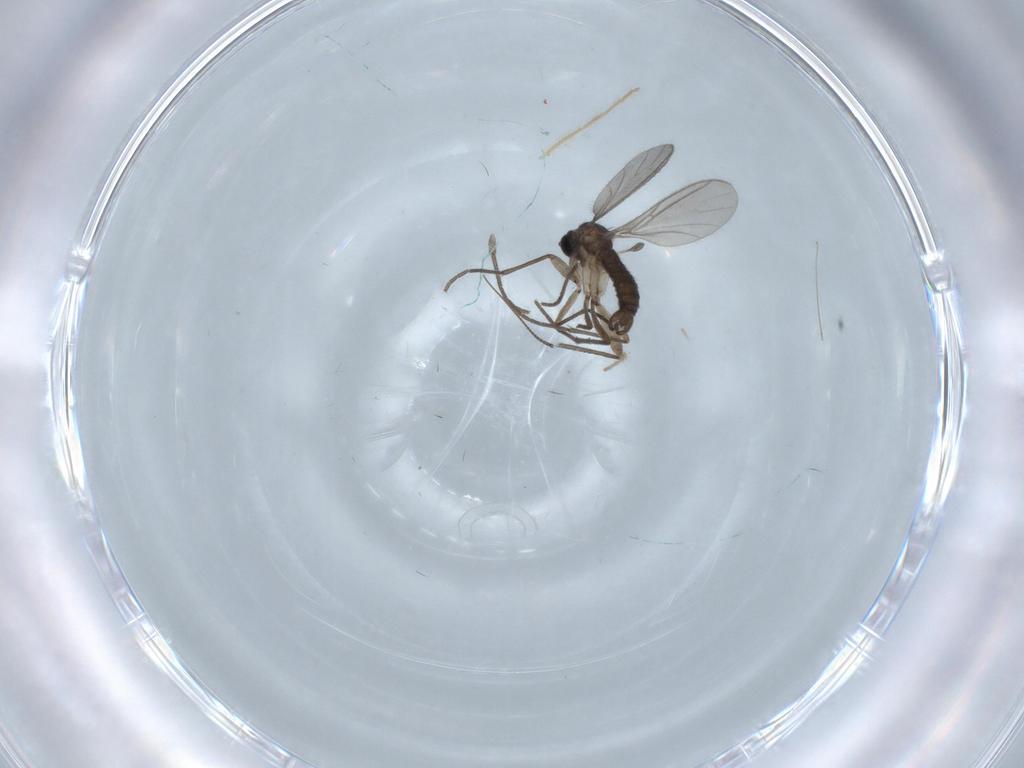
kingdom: Animalia
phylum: Arthropoda
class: Insecta
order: Diptera
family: Sciaridae
